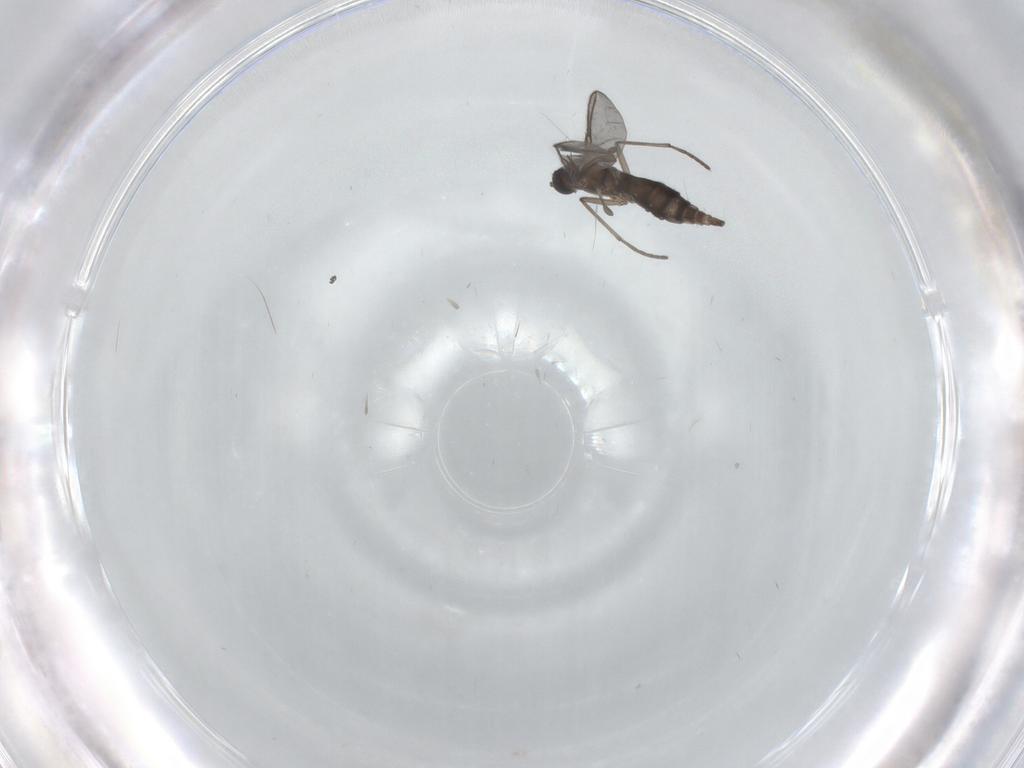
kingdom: Animalia
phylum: Arthropoda
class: Insecta
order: Diptera
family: Sciaridae
